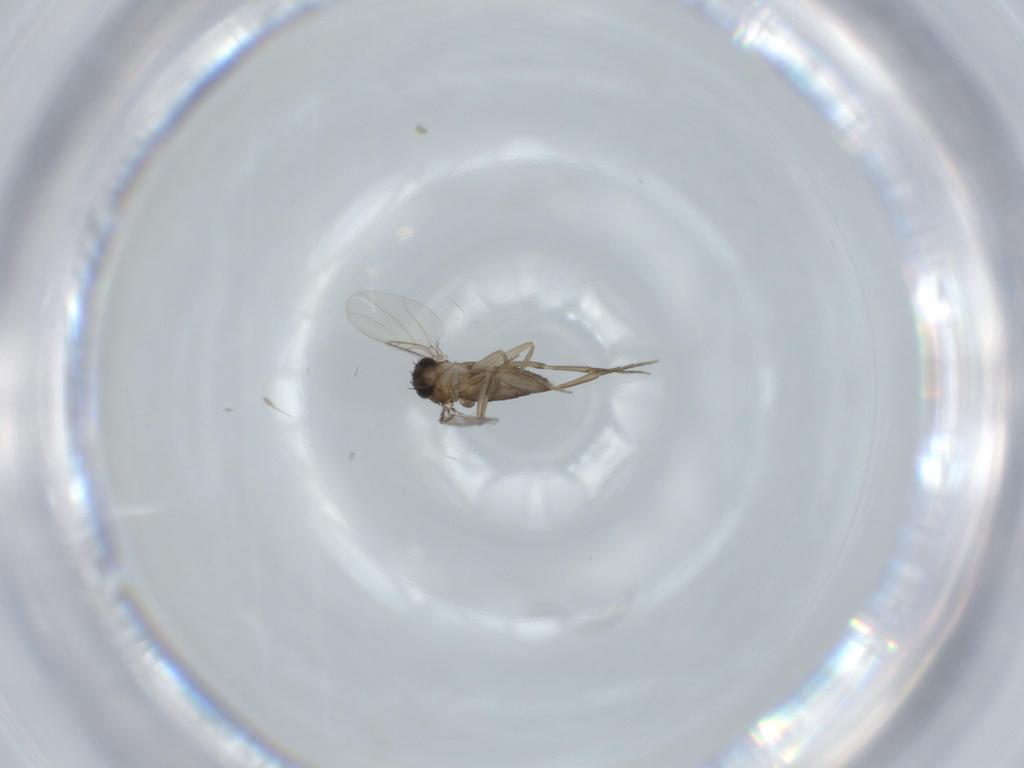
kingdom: Animalia
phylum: Arthropoda
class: Insecta
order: Diptera
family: Phoridae
